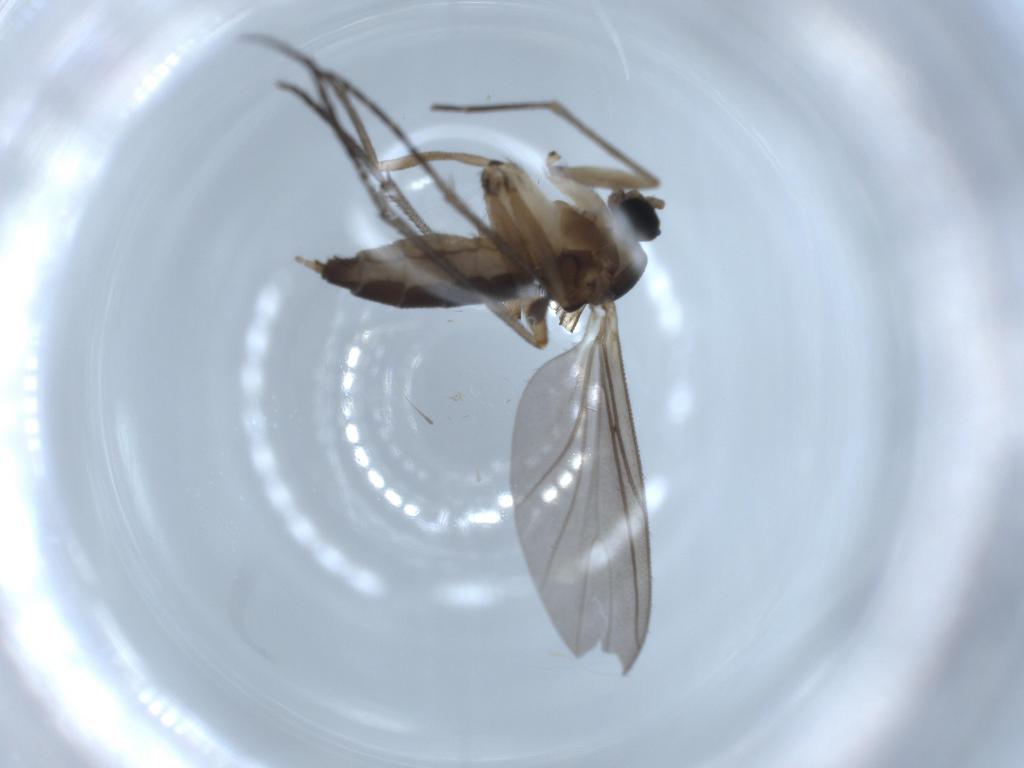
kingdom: Animalia
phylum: Arthropoda
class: Insecta
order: Diptera
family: Sciaridae
